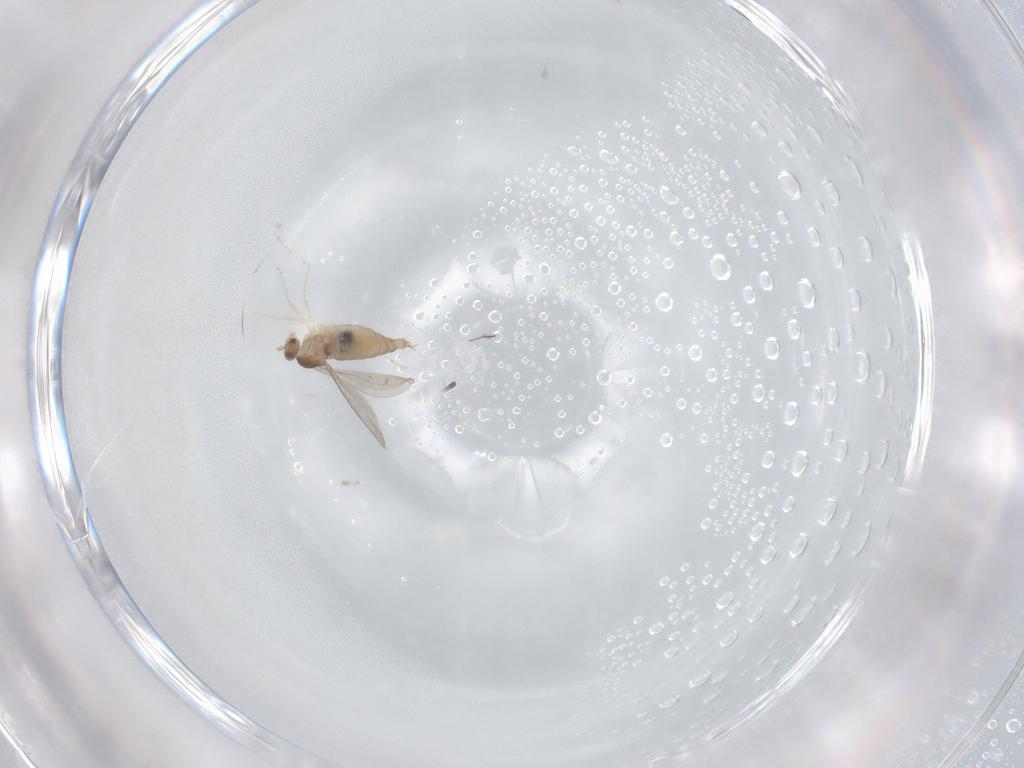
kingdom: Animalia
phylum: Arthropoda
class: Insecta
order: Diptera
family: Cecidomyiidae
